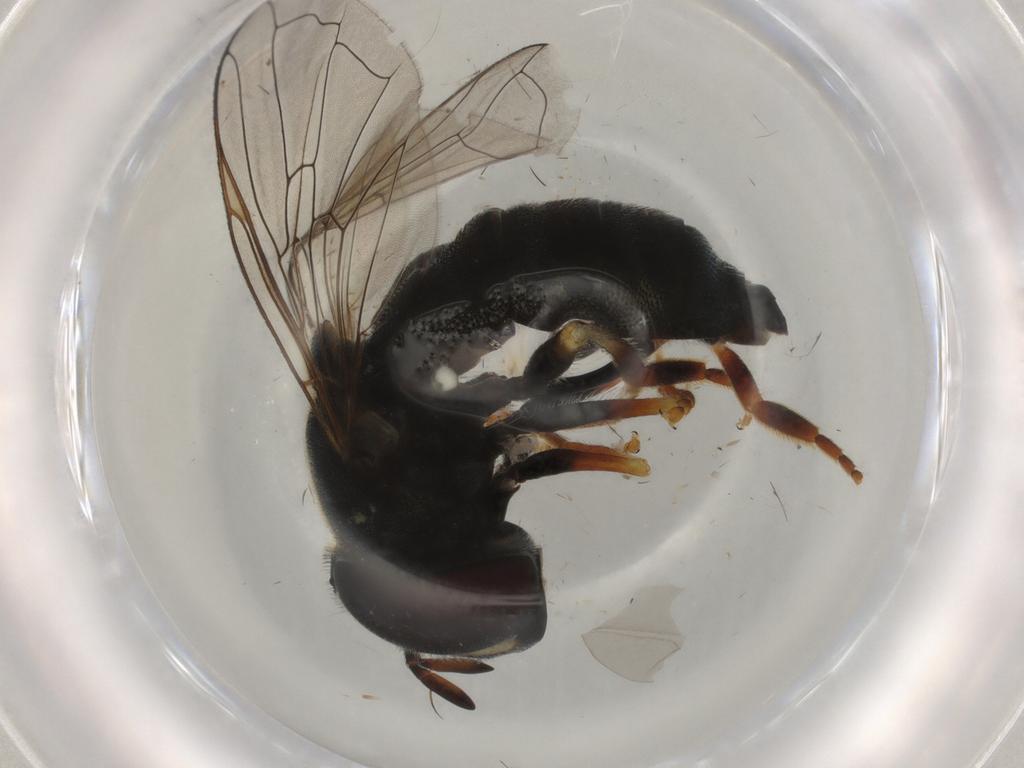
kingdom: Animalia
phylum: Arthropoda
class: Insecta
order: Diptera
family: Syrphidae
